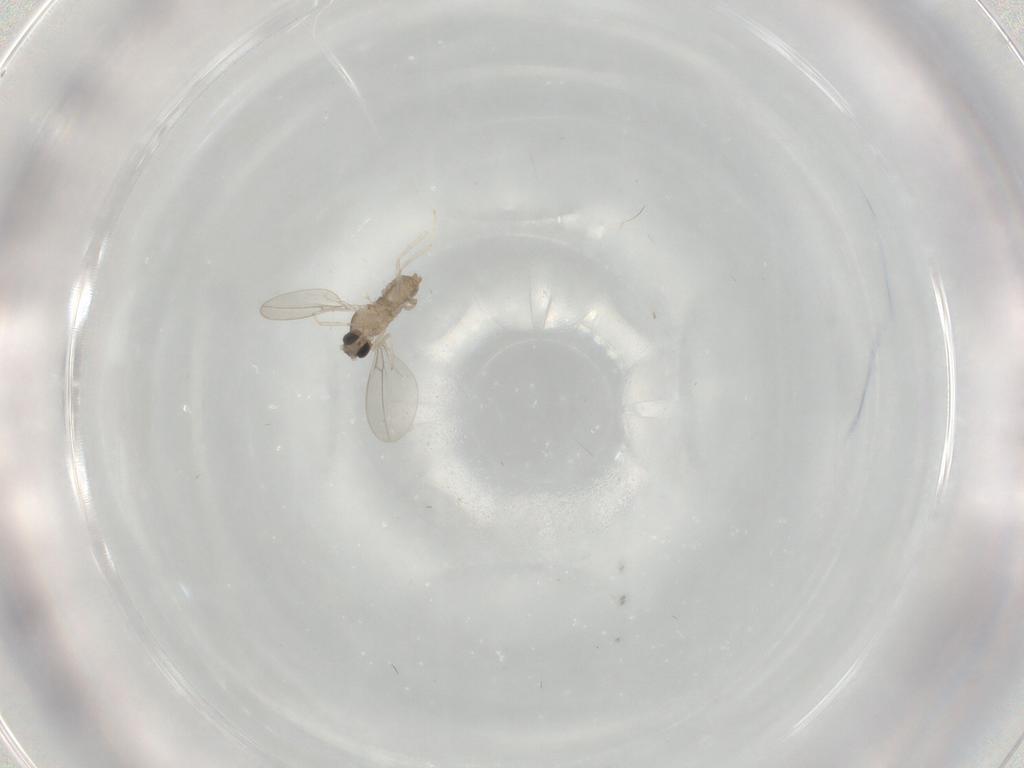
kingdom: Animalia
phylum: Arthropoda
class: Insecta
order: Diptera
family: Cecidomyiidae
